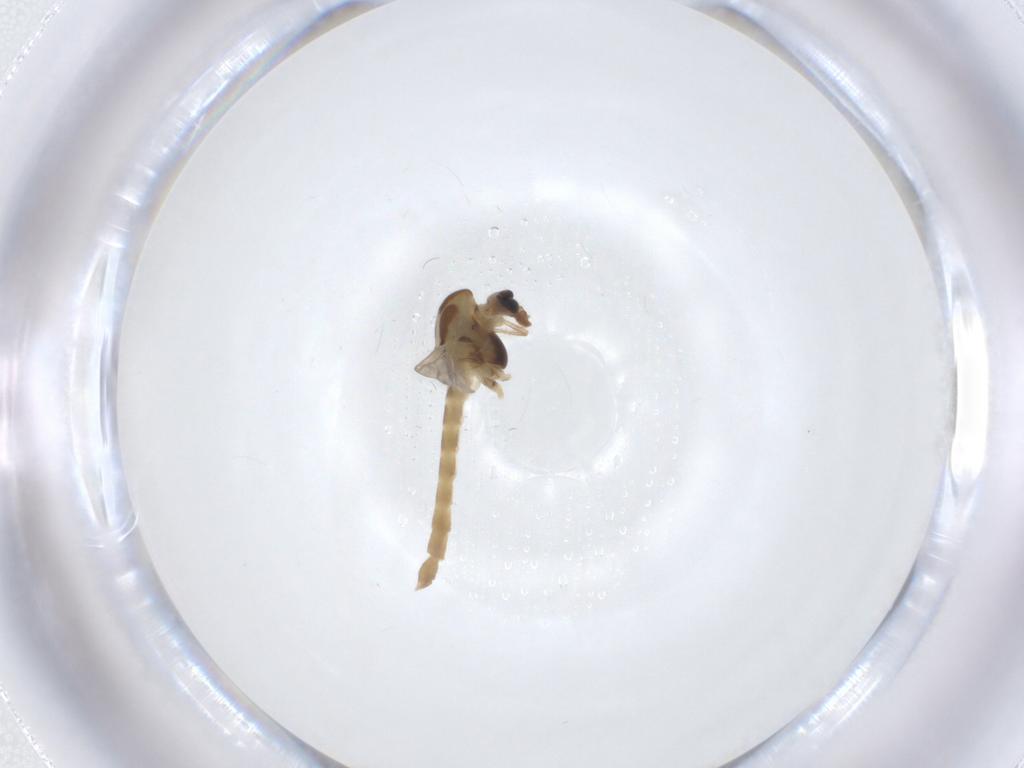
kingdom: Animalia
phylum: Arthropoda
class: Insecta
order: Diptera
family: Chironomidae
